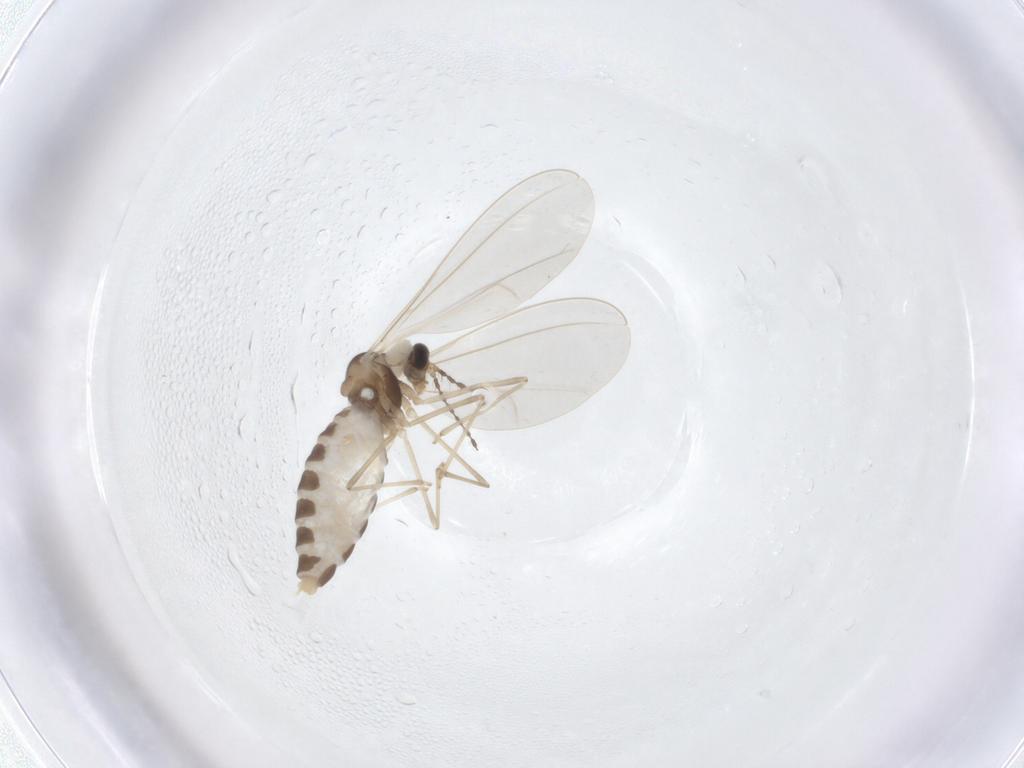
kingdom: Animalia
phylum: Arthropoda
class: Insecta
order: Diptera
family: Cecidomyiidae
